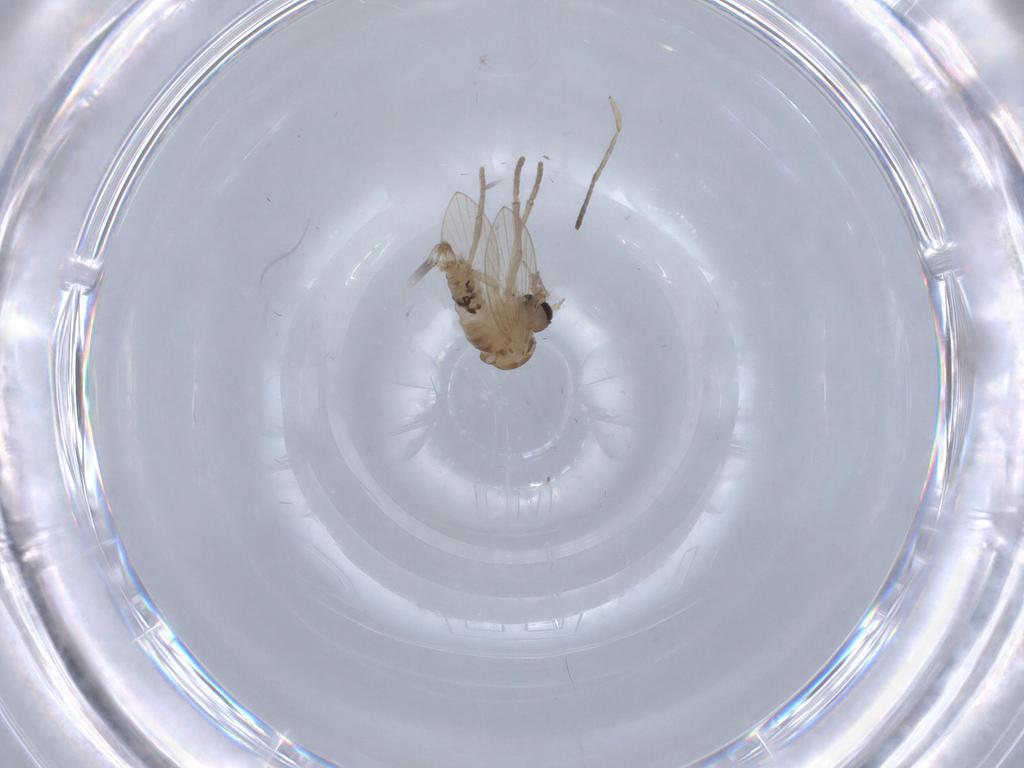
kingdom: Animalia
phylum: Arthropoda
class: Insecta
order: Diptera
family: Culicidae
